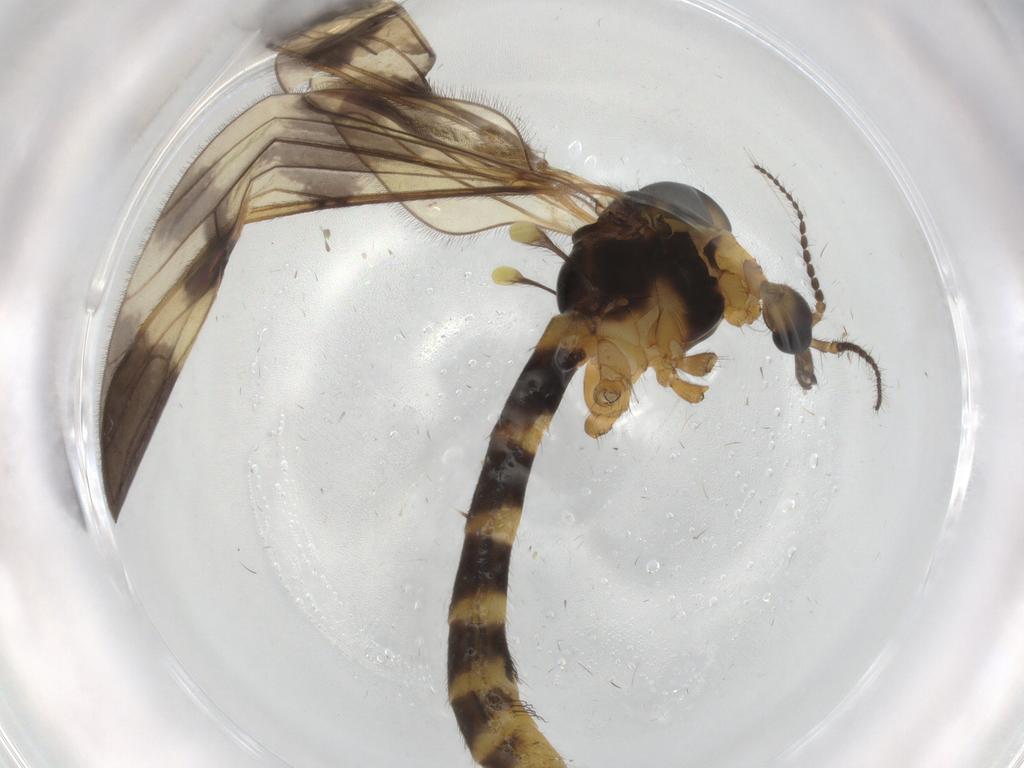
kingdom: Animalia
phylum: Arthropoda
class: Insecta
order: Diptera
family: Limoniidae
